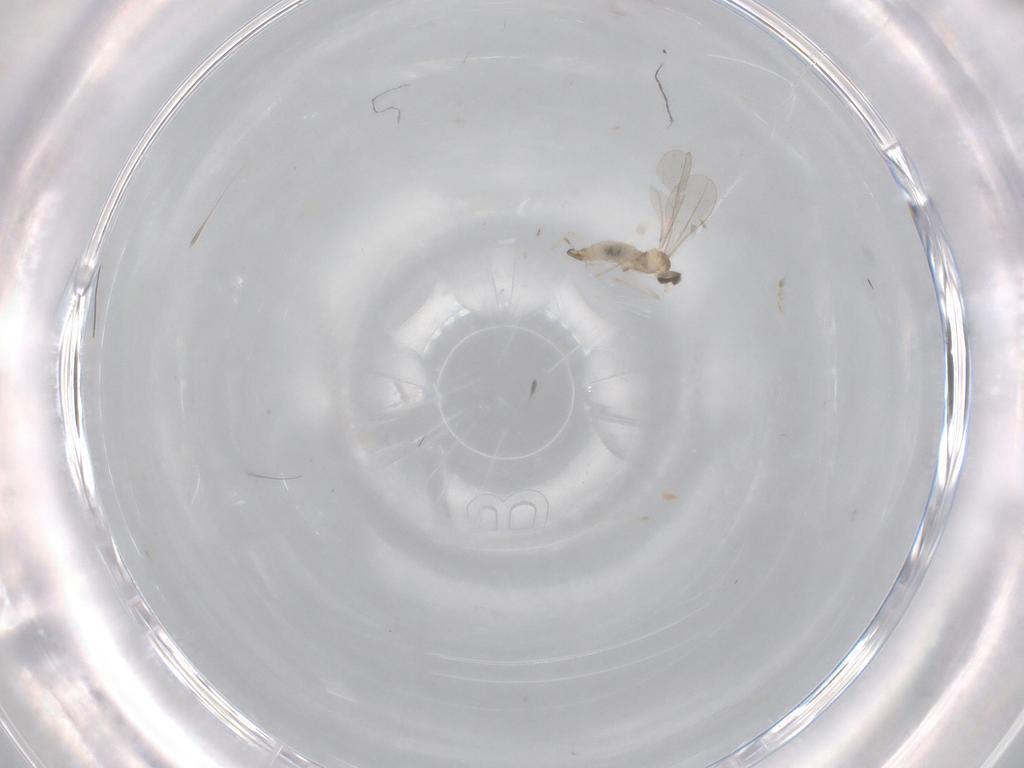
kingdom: Animalia
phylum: Arthropoda
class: Insecta
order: Diptera
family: Cecidomyiidae
